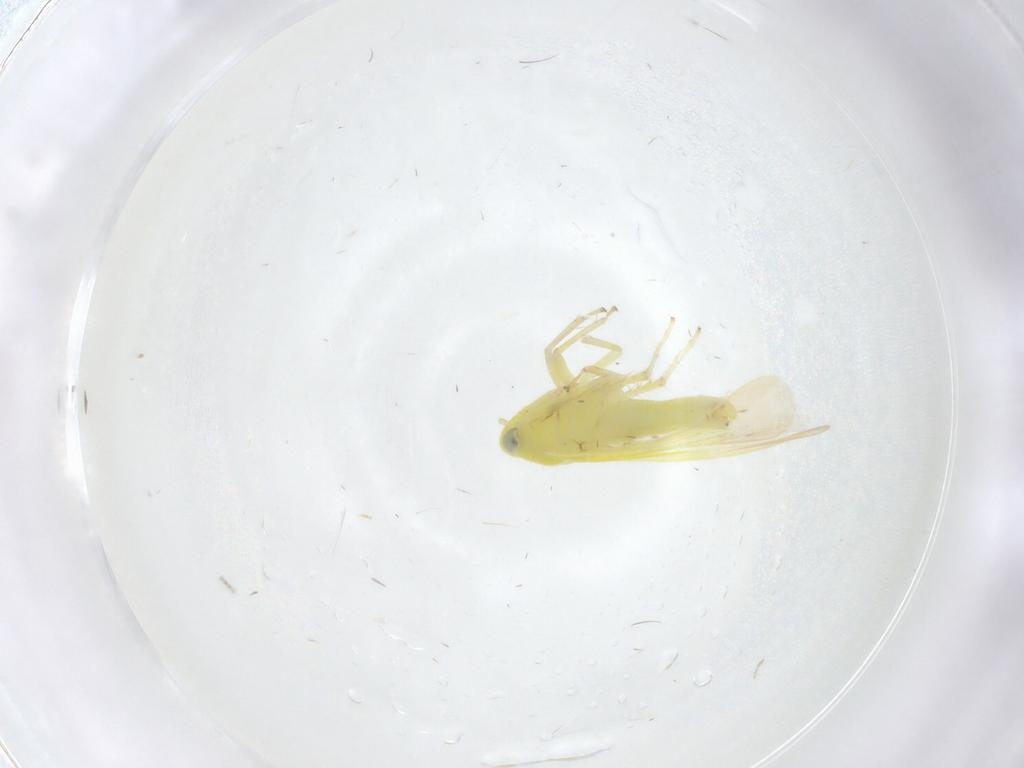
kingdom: Animalia
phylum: Arthropoda
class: Insecta
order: Hemiptera
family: Cicadellidae
